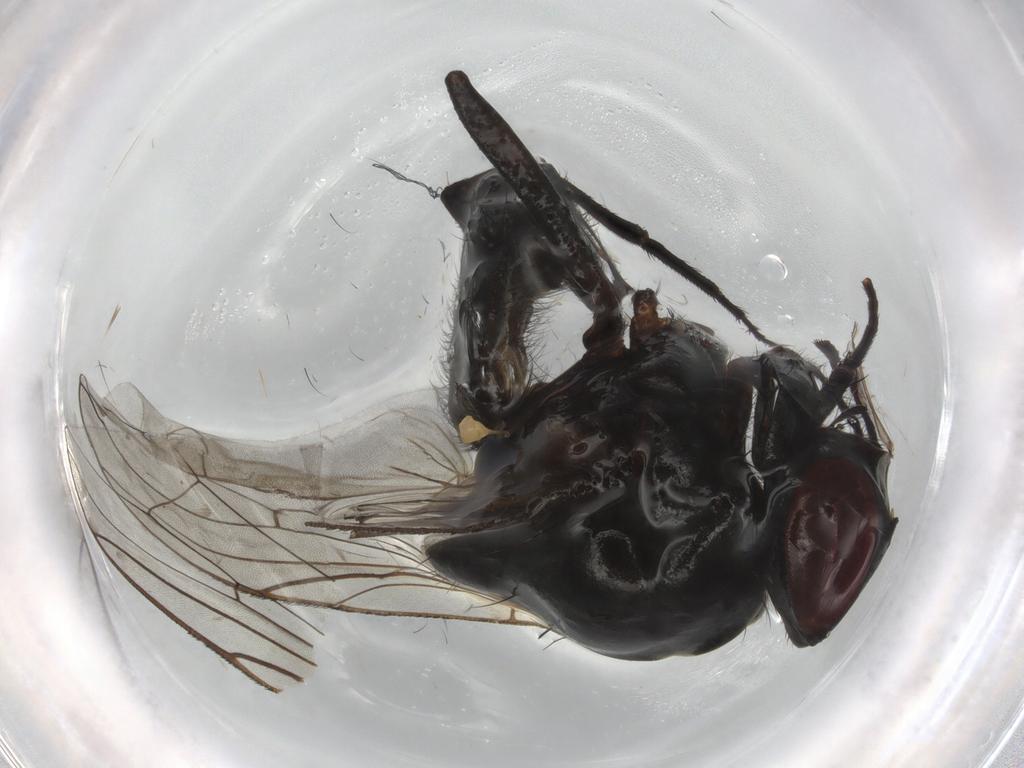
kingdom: Animalia
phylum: Arthropoda
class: Insecta
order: Diptera
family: Anthomyiidae
